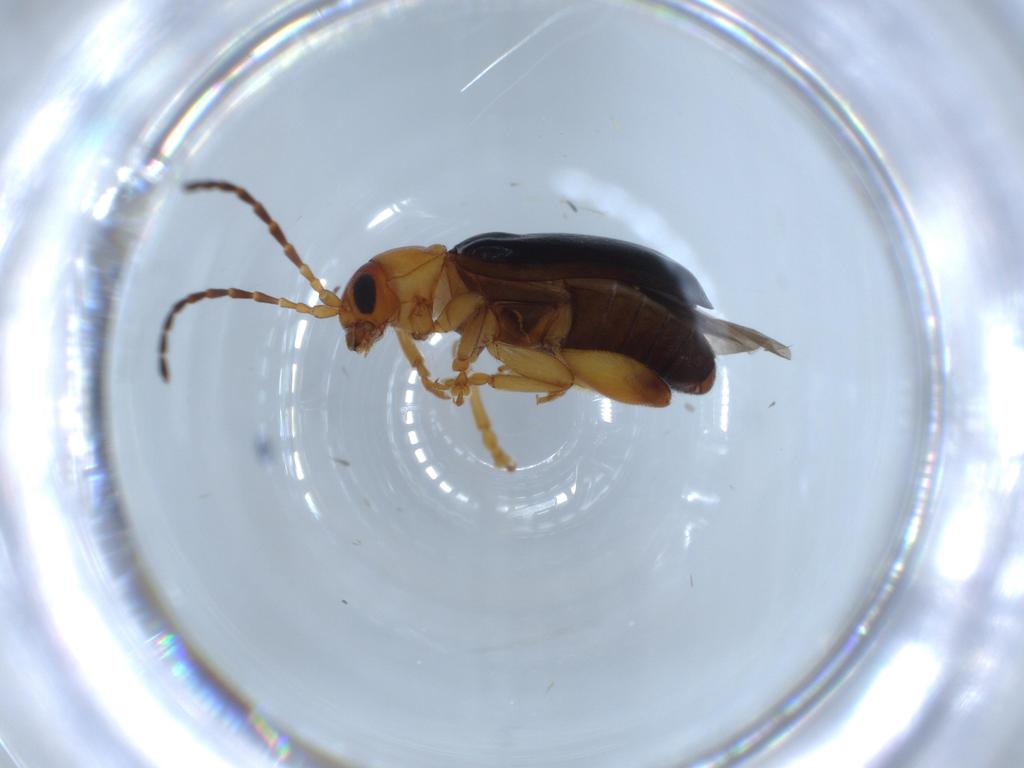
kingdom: Animalia
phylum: Arthropoda
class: Insecta
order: Coleoptera
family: Chrysomelidae
